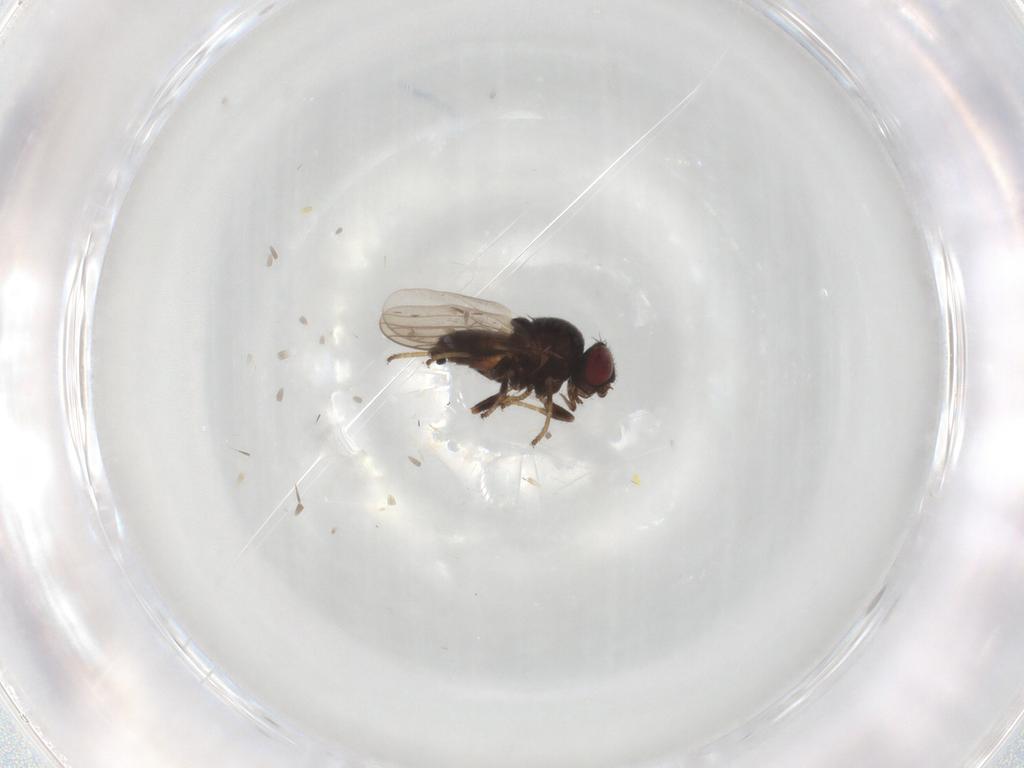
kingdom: Animalia
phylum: Arthropoda
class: Insecta
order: Diptera
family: Chloropidae
